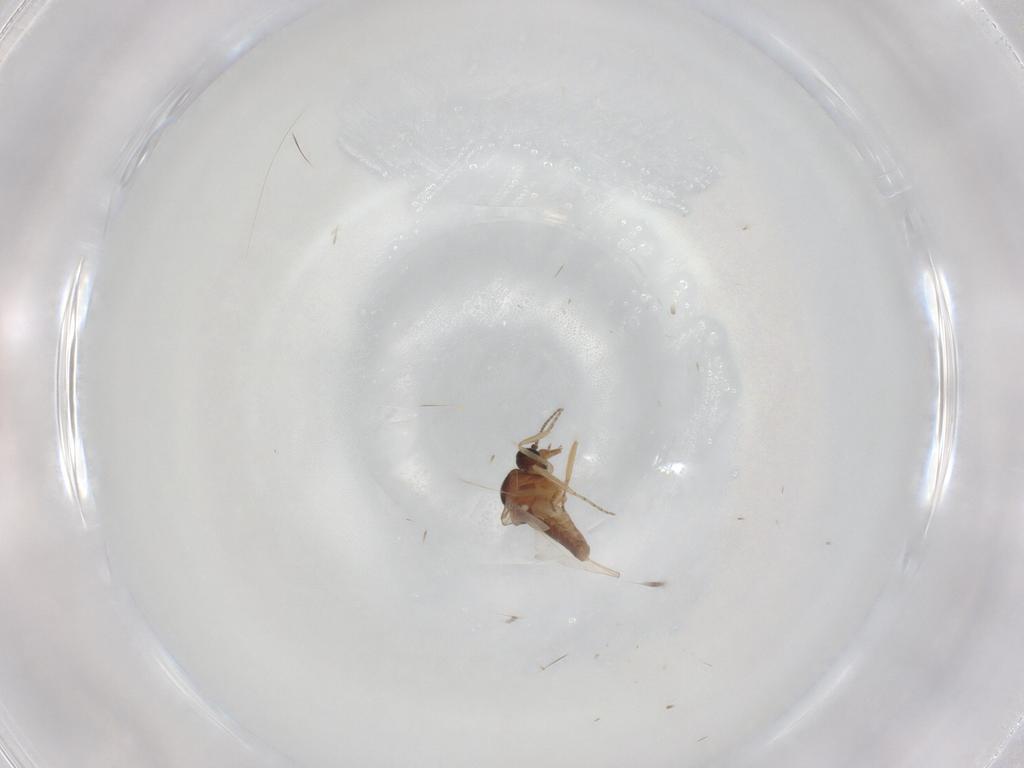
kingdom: Animalia
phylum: Arthropoda
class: Insecta
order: Diptera
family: Ceratopogonidae
